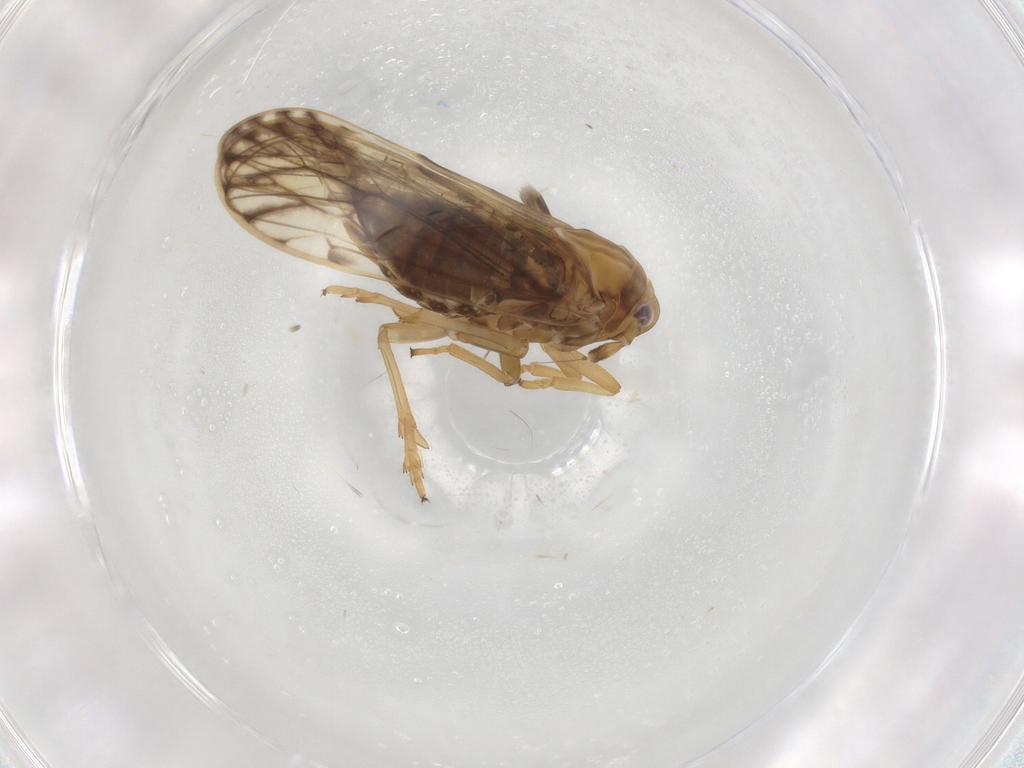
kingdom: Animalia
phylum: Arthropoda
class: Insecta
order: Hemiptera
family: Delphacidae
